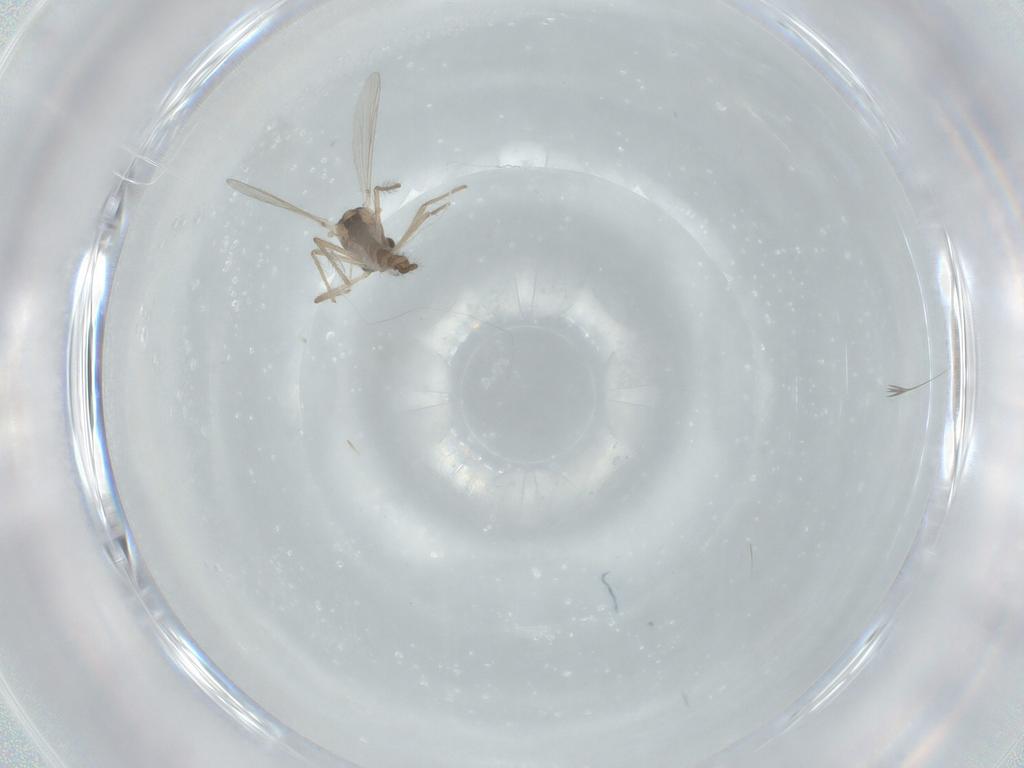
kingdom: Animalia
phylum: Arthropoda
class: Insecta
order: Diptera
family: Chironomidae
